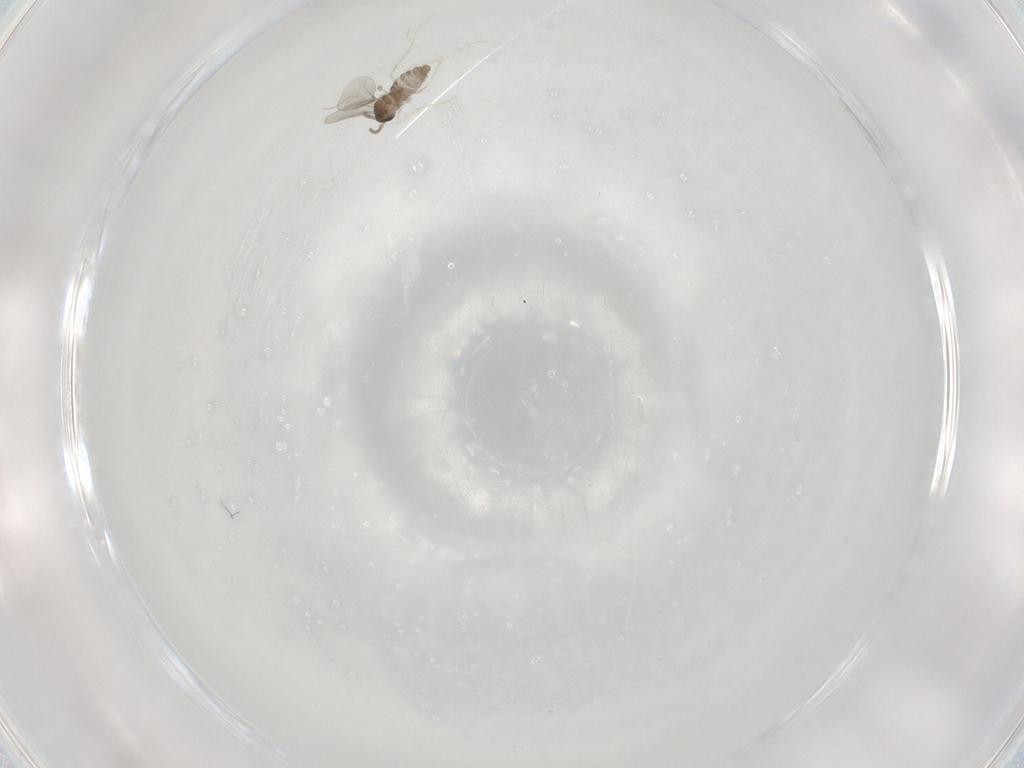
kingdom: Animalia
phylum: Arthropoda
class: Insecta
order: Diptera
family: Cecidomyiidae
